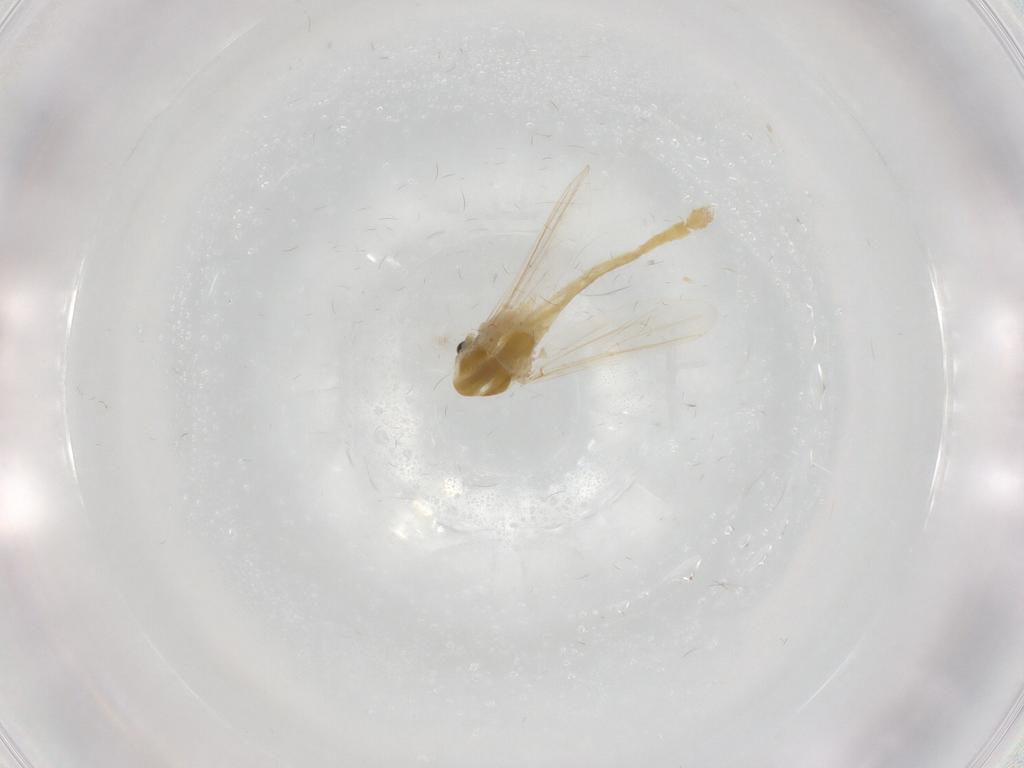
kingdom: Animalia
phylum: Arthropoda
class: Insecta
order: Diptera
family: Chironomidae
